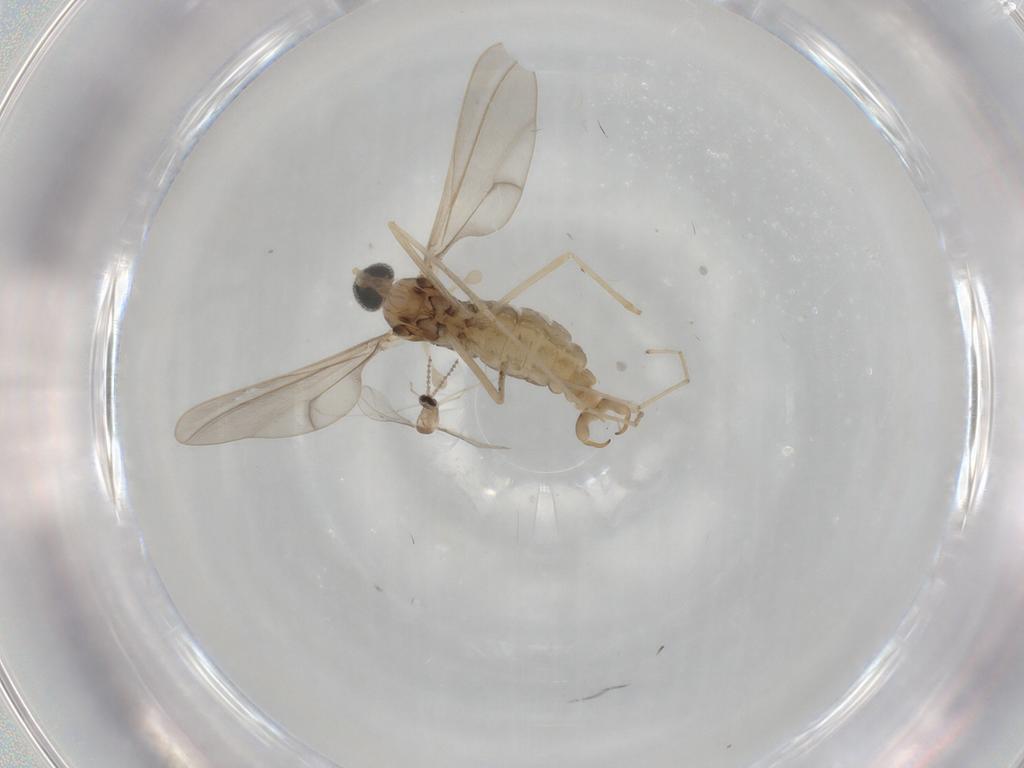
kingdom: Animalia
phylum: Arthropoda
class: Insecta
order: Diptera
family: Cecidomyiidae
